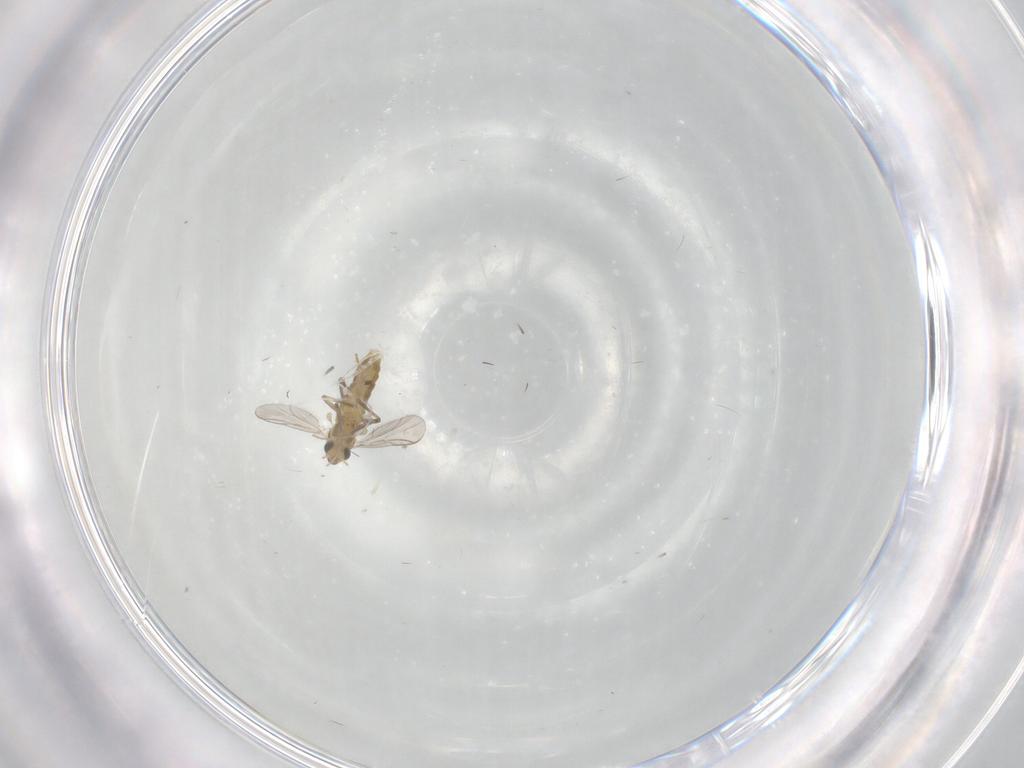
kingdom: Animalia
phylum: Arthropoda
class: Insecta
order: Diptera
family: Chironomidae
